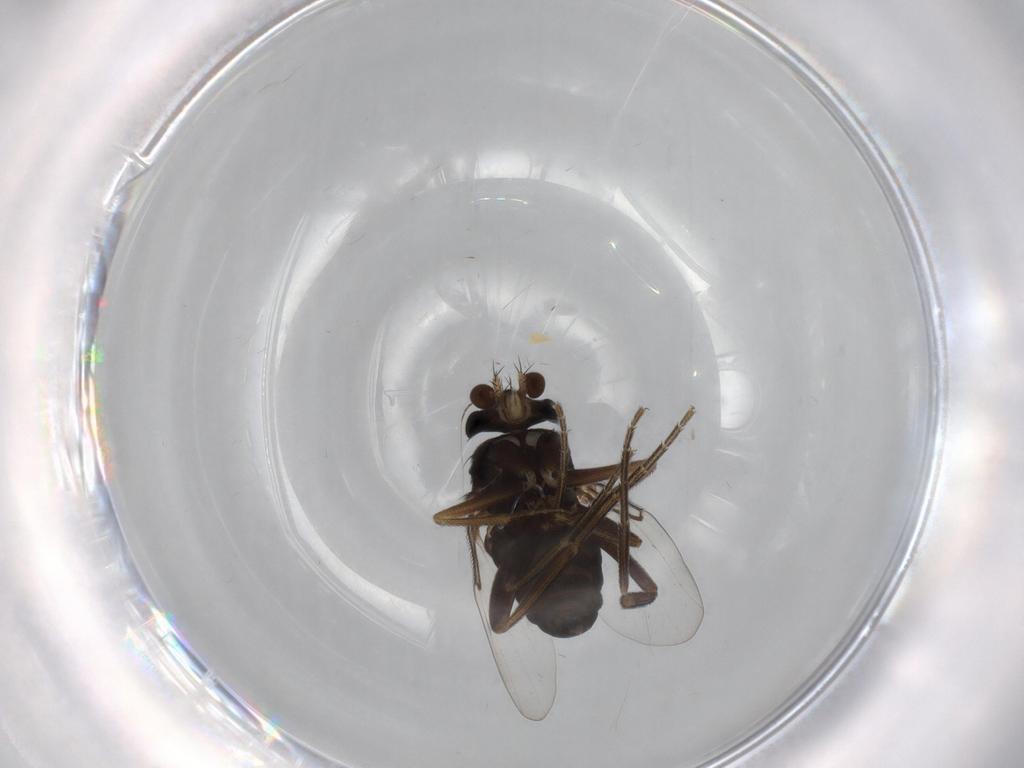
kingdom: Animalia
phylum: Arthropoda
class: Insecta
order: Diptera
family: Phoridae
